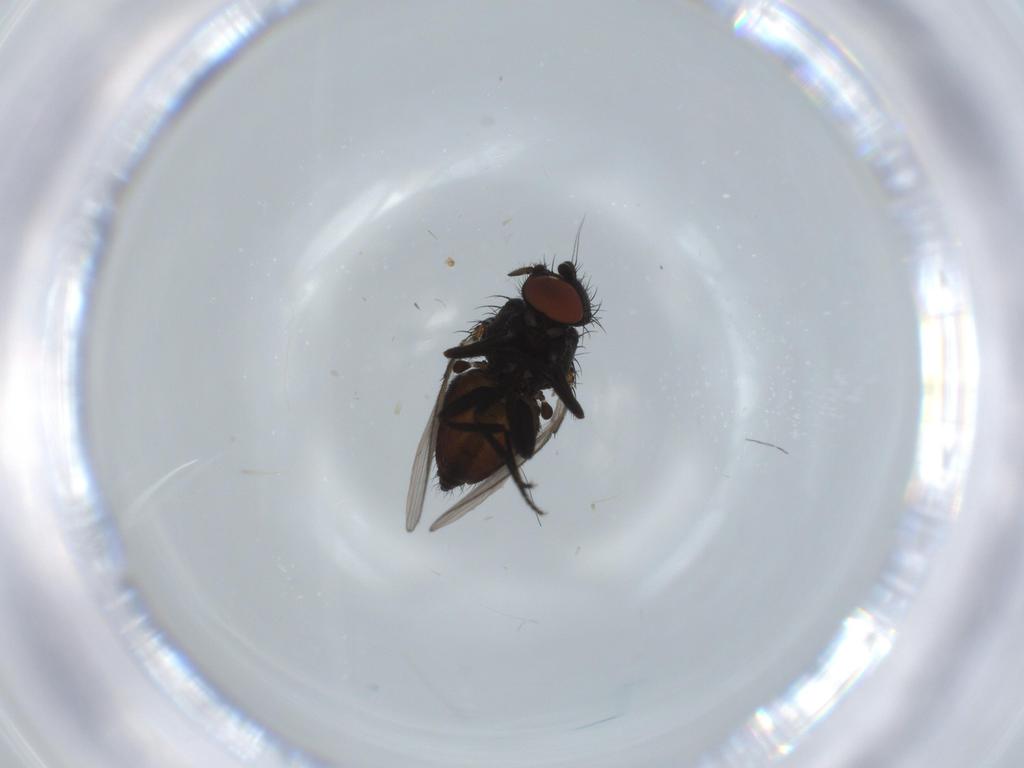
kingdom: Animalia
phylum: Arthropoda
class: Insecta
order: Diptera
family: Milichiidae
